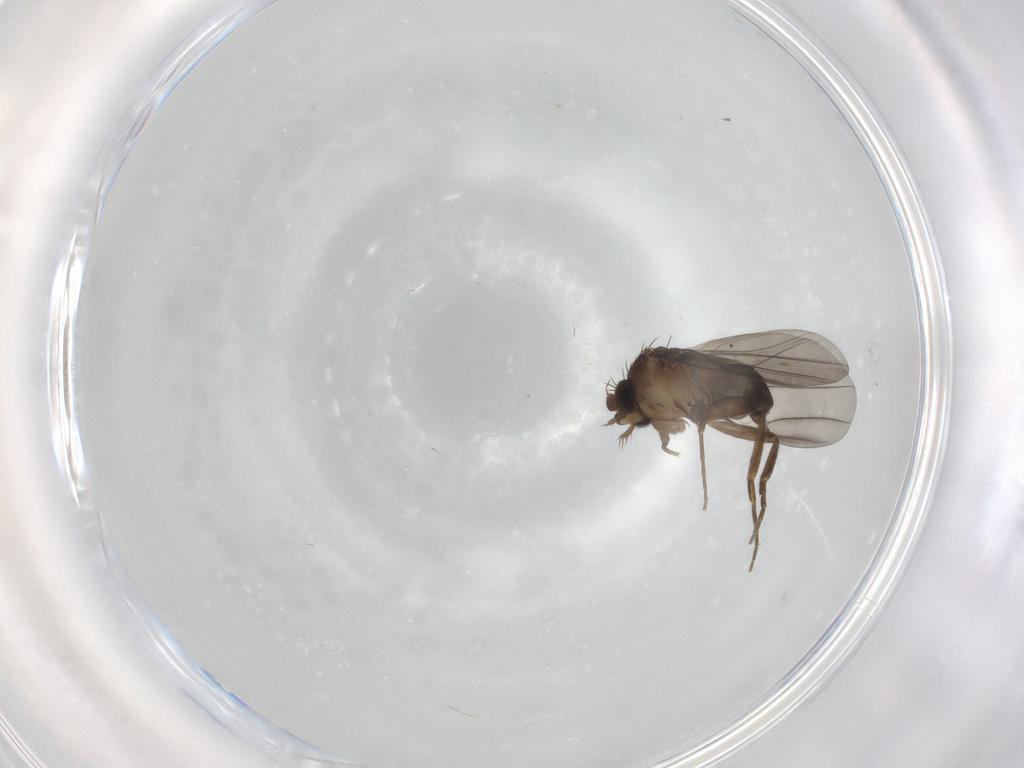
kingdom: Animalia
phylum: Arthropoda
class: Insecta
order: Diptera
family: Phoridae
